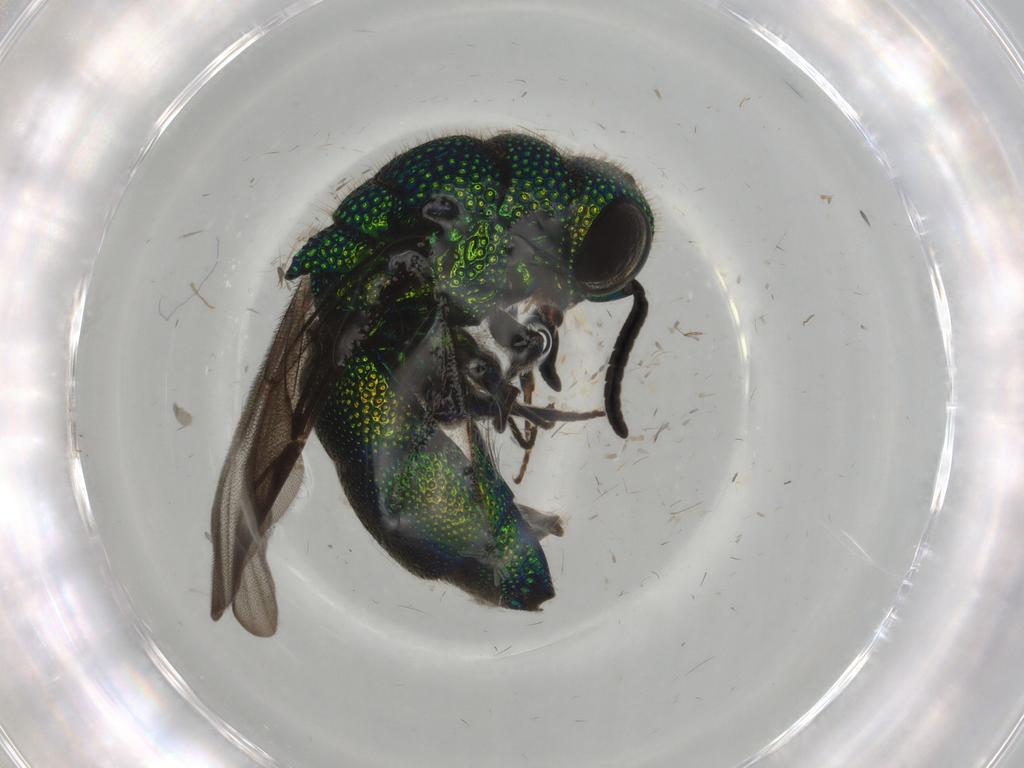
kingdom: Animalia
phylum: Arthropoda
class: Insecta
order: Hymenoptera
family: Chrysididae
